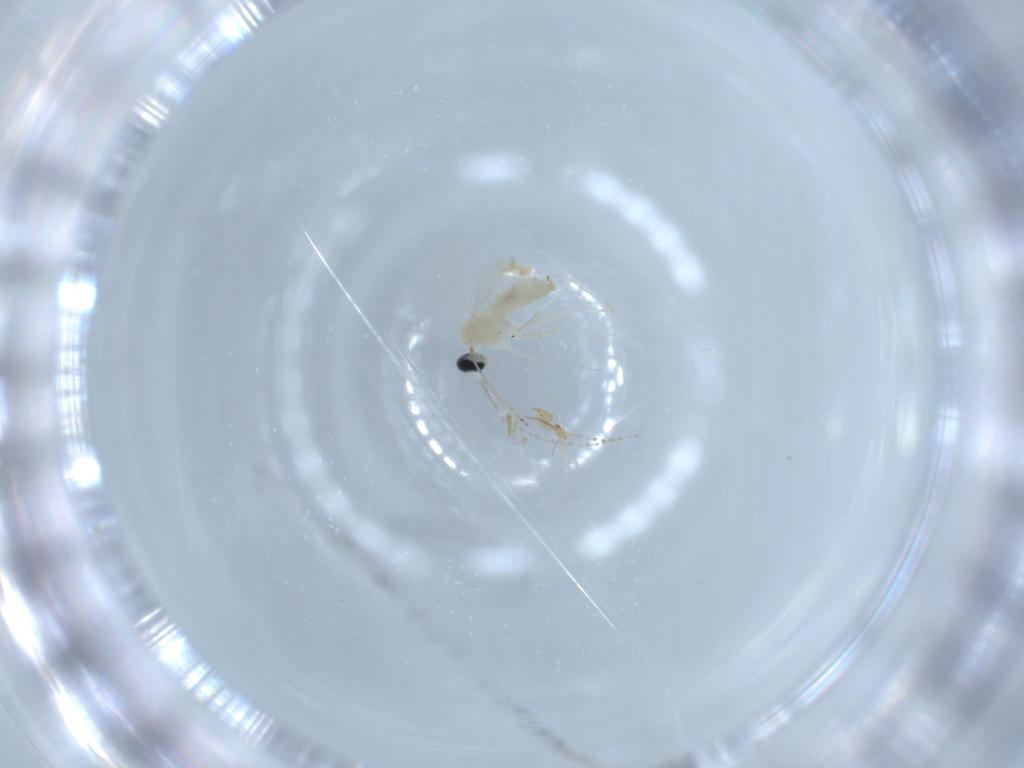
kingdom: Animalia
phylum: Arthropoda
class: Insecta
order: Diptera
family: Cecidomyiidae
